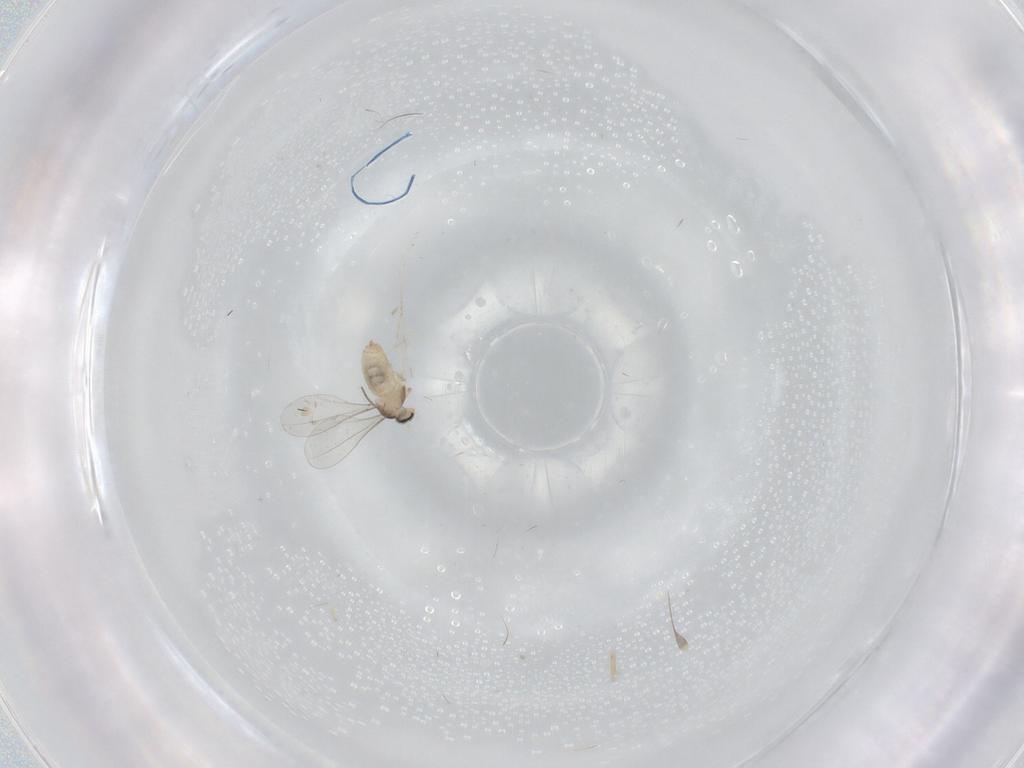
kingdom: Animalia
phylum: Arthropoda
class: Insecta
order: Diptera
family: Cecidomyiidae
